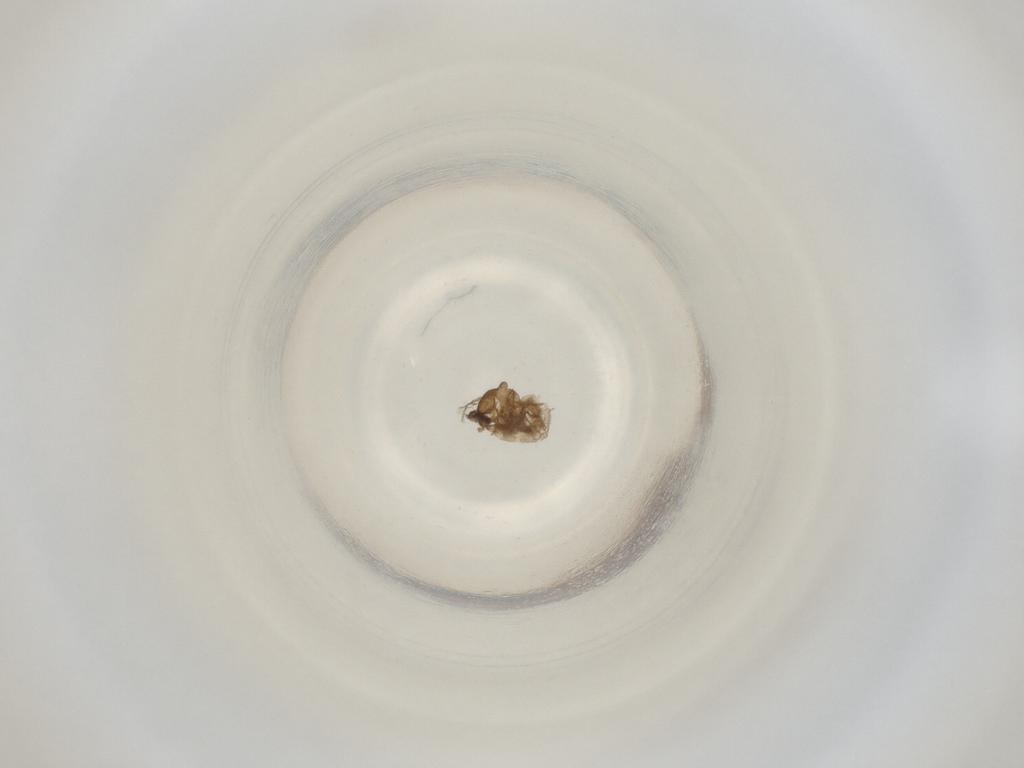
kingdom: Animalia
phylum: Arthropoda
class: Insecta
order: Diptera
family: Cecidomyiidae
